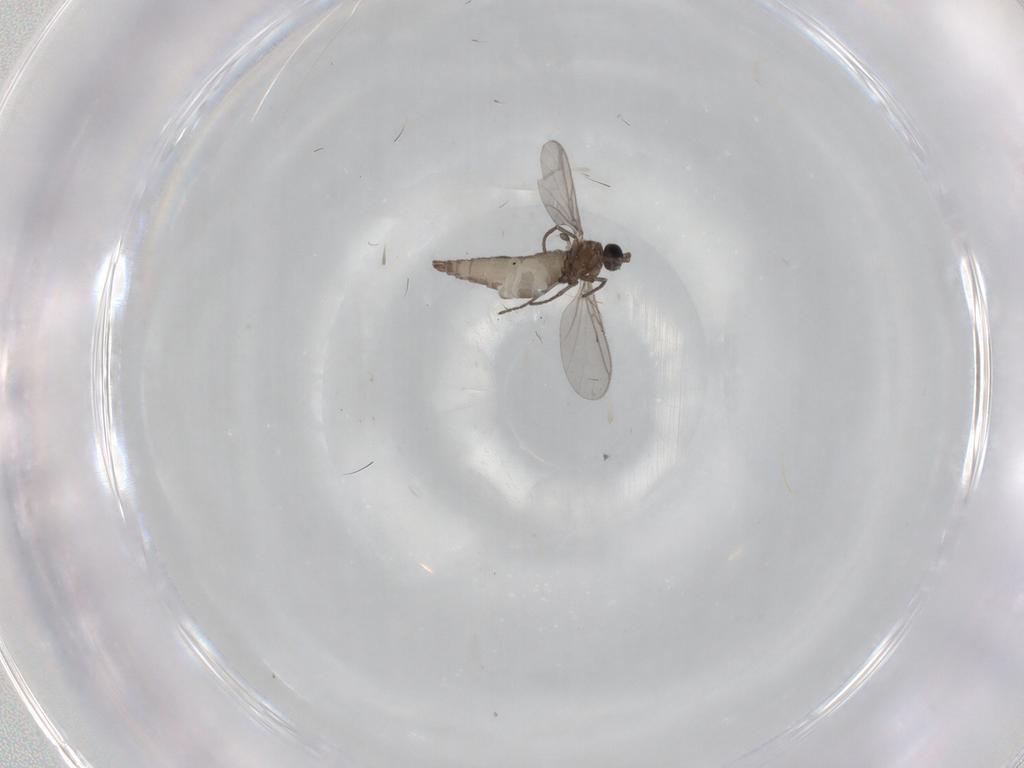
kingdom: Animalia
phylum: Arthropoda
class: Insecta
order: Diptera
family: Sciaridae
